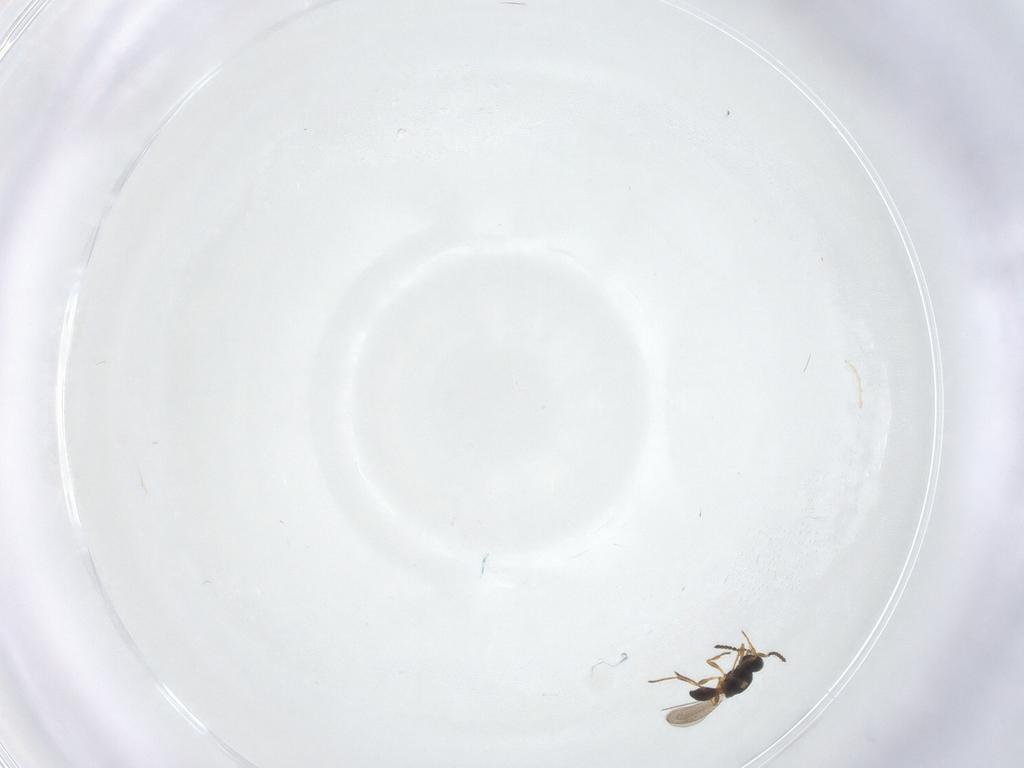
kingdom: Animalia
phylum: Arthropoda
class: Insecta
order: Hymenoptera
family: Platygastridae
